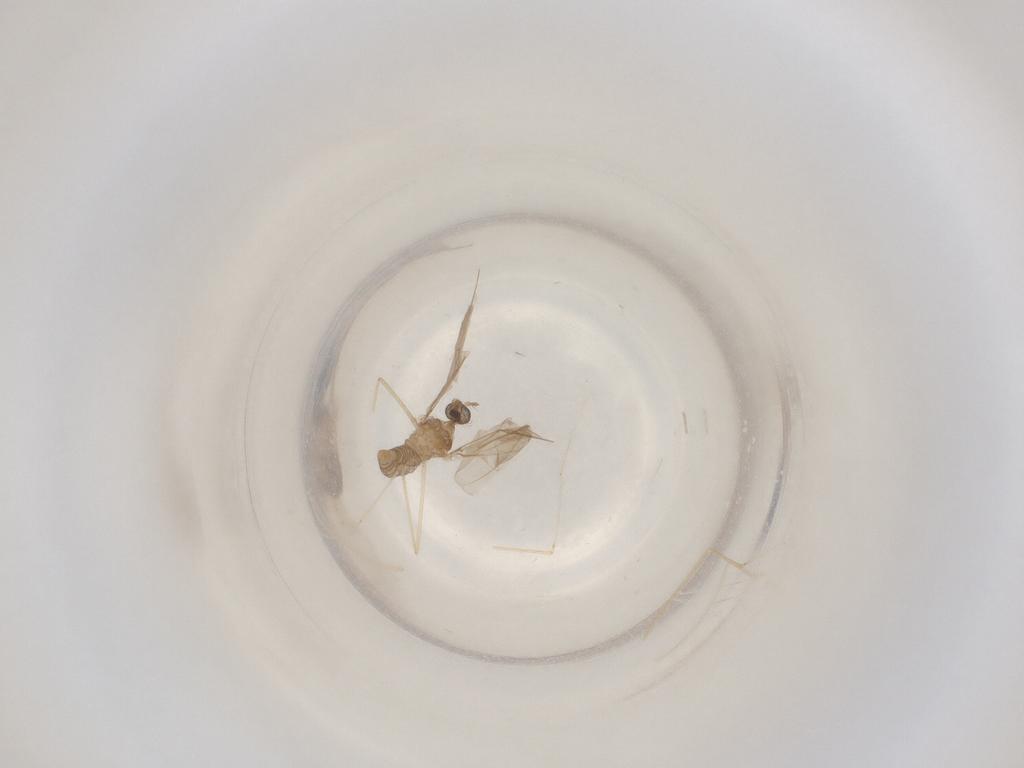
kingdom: Animalia
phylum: Arthropoda
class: Insecta
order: Diptera
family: Cecidomyiidae
